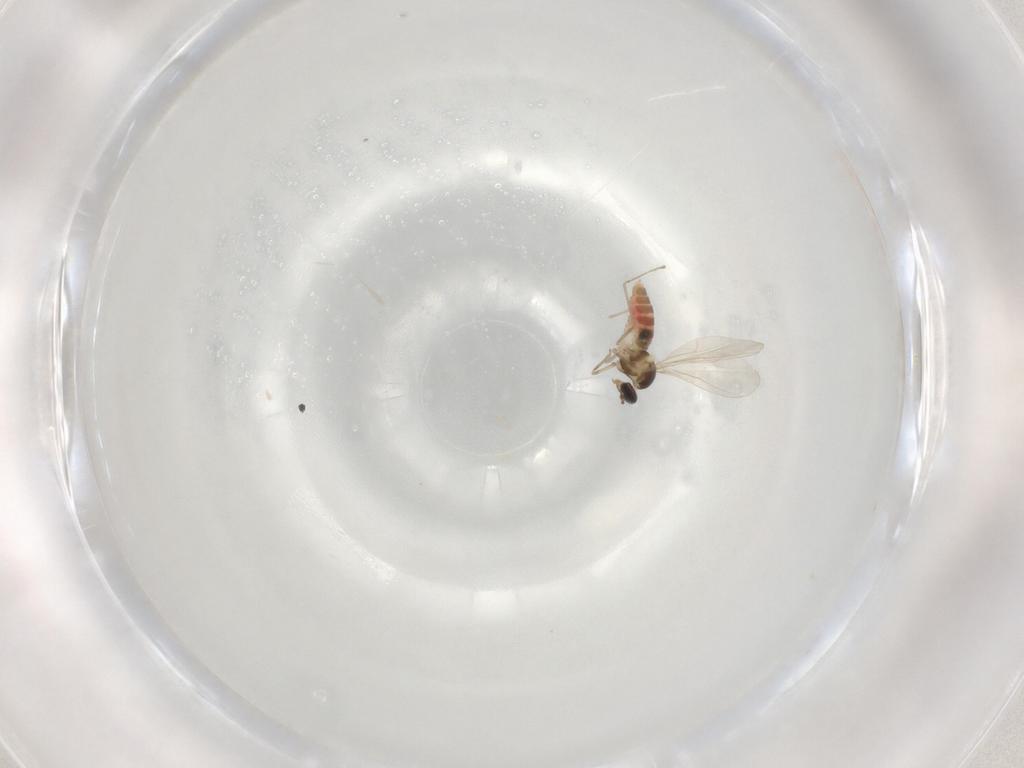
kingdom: Animalia
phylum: Arthropoda
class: Insecta
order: Diptera
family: Cecidomyiidae
